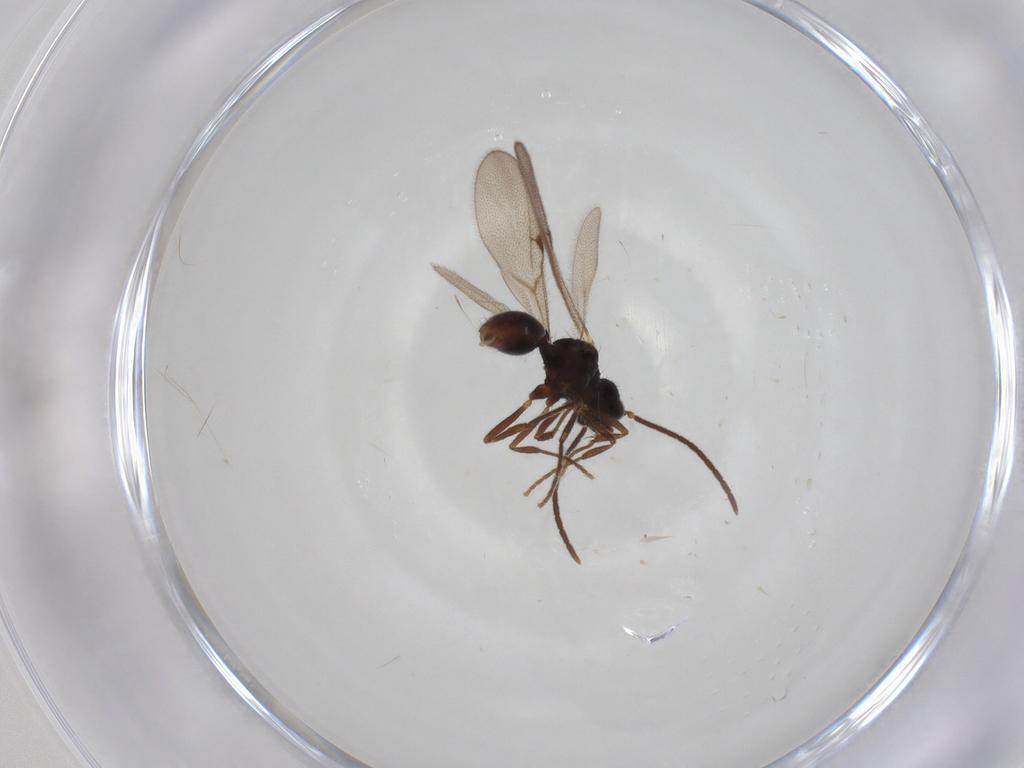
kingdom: Animalia
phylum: Arthropoda
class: Insecta
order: Hymenoptera
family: Formicidae
